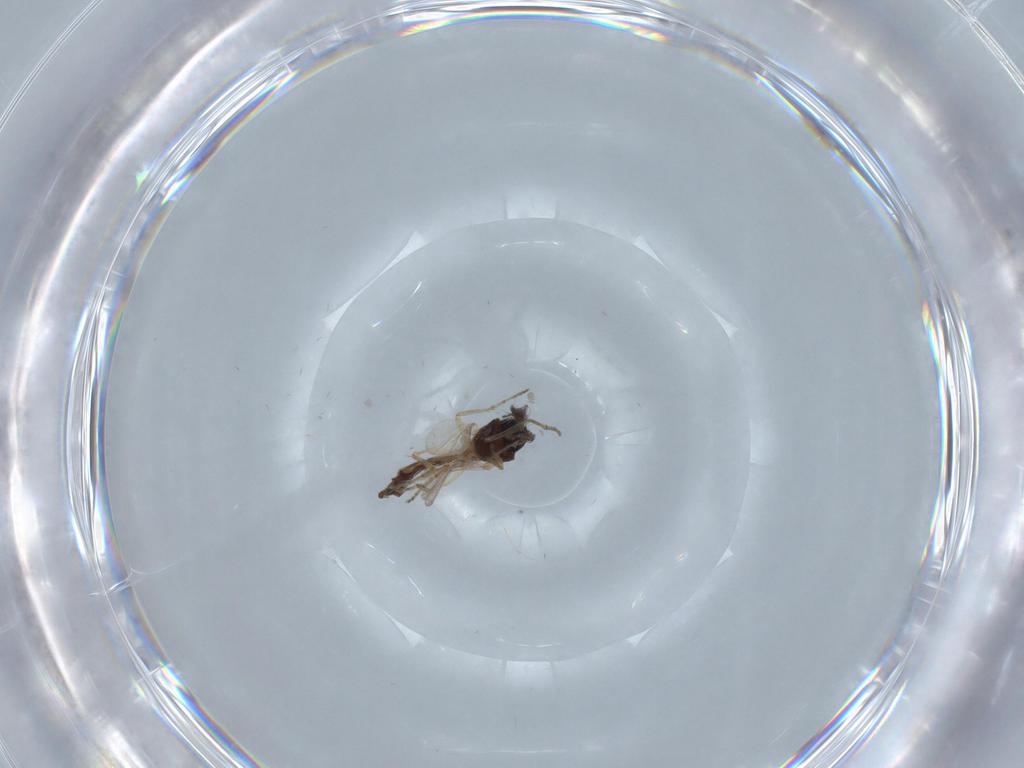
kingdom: Animalia
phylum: Arthropoda
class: Insecta
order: Diptera
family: Ceratopogonidae
